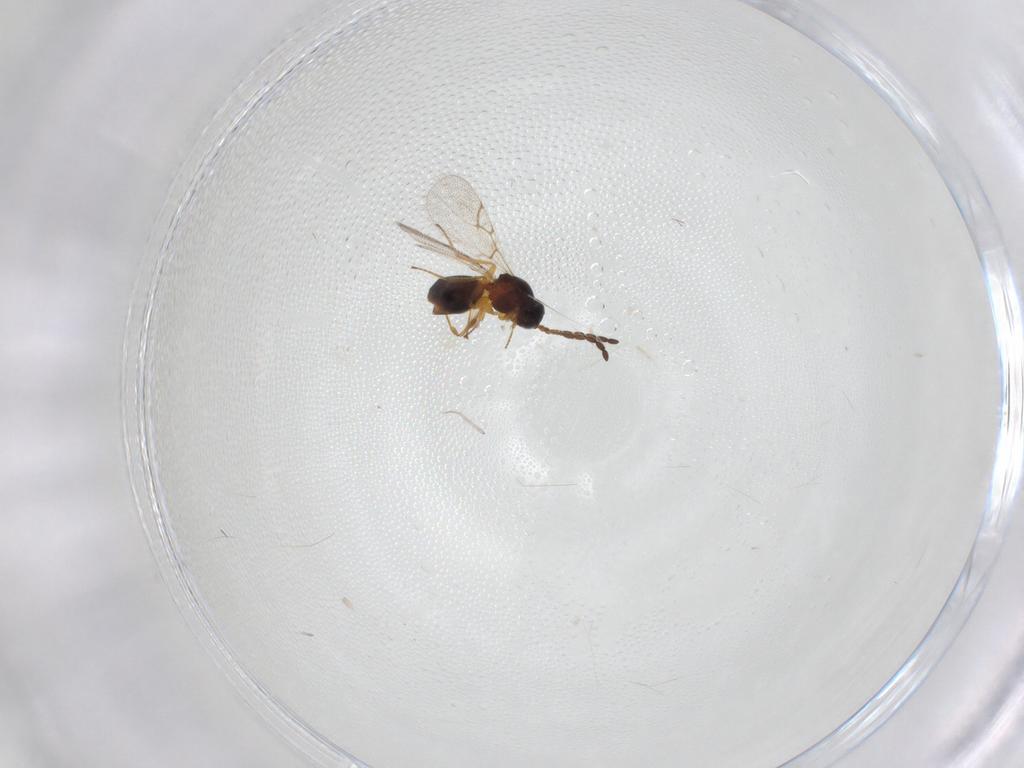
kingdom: Animalia
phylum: Arthropoda
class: Insecta
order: Hymenoptera
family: Figitidae
